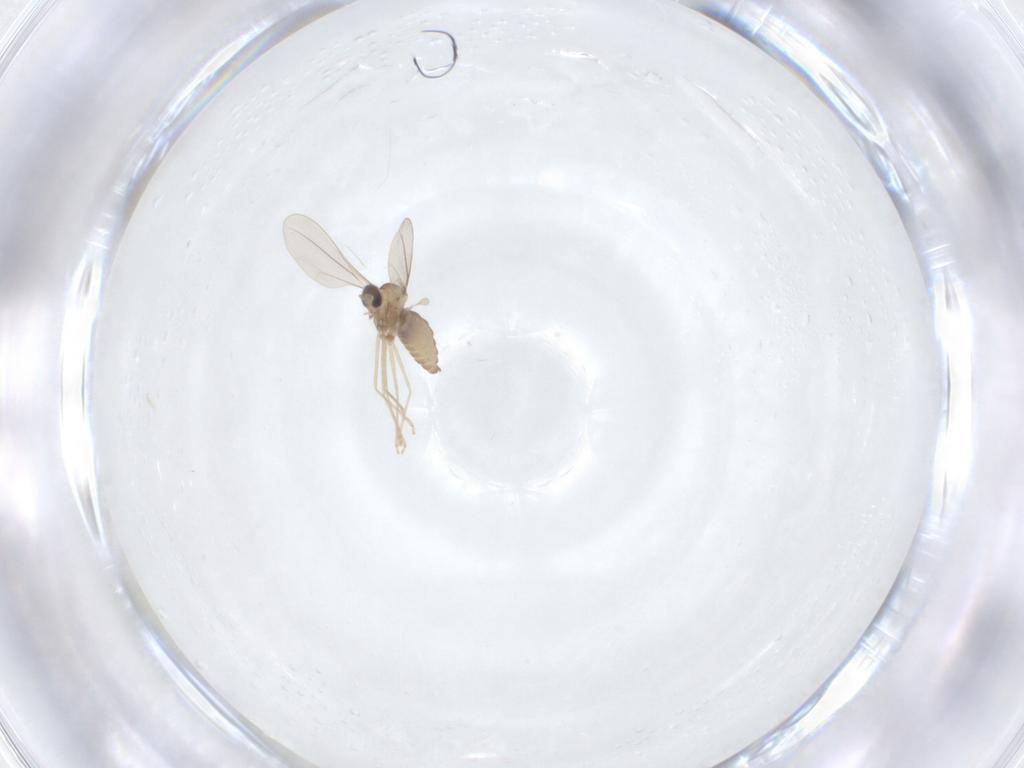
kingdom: Animalia
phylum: Arthropoda
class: Insecta
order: Diptera
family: Cecidomyiidae
